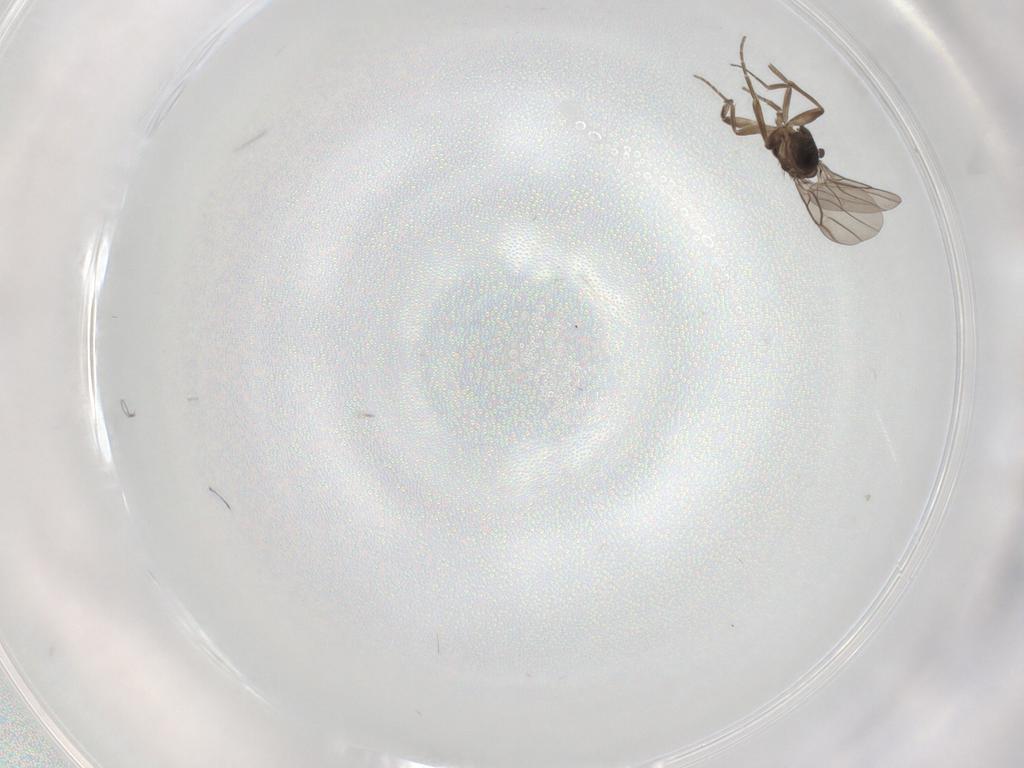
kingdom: Animalia
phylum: Arthropoda
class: Insecta
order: Diptera
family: Sciaridae
